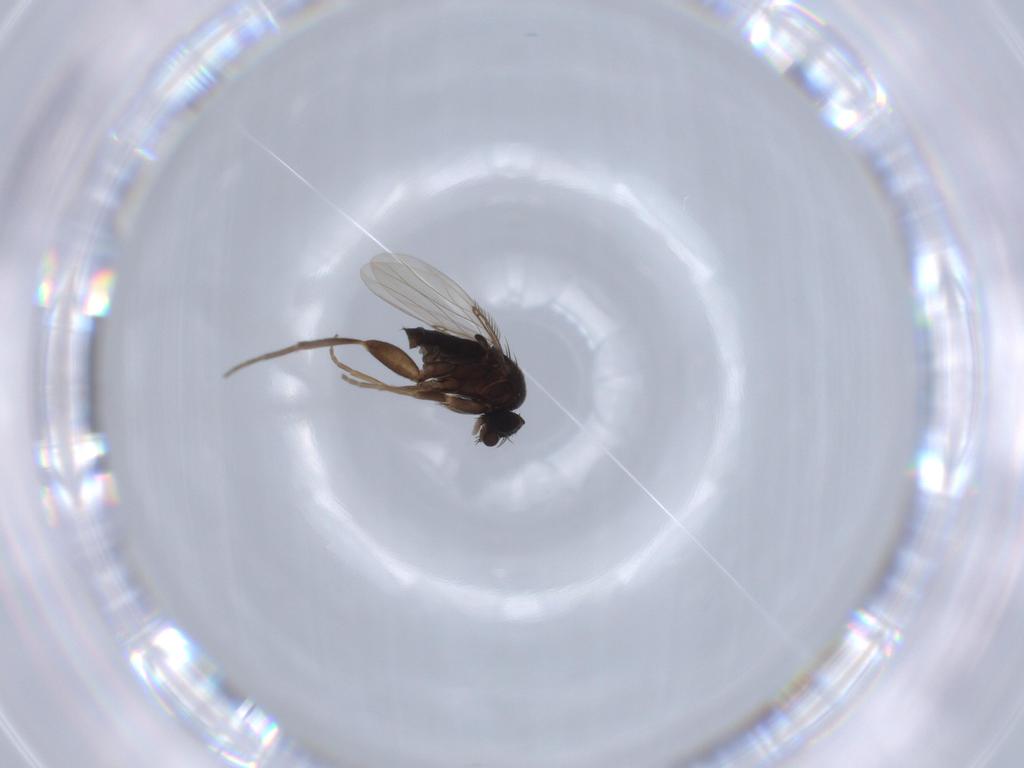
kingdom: Animalia
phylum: Arthropoda
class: Insecta
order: Diptera
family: Phoridae
